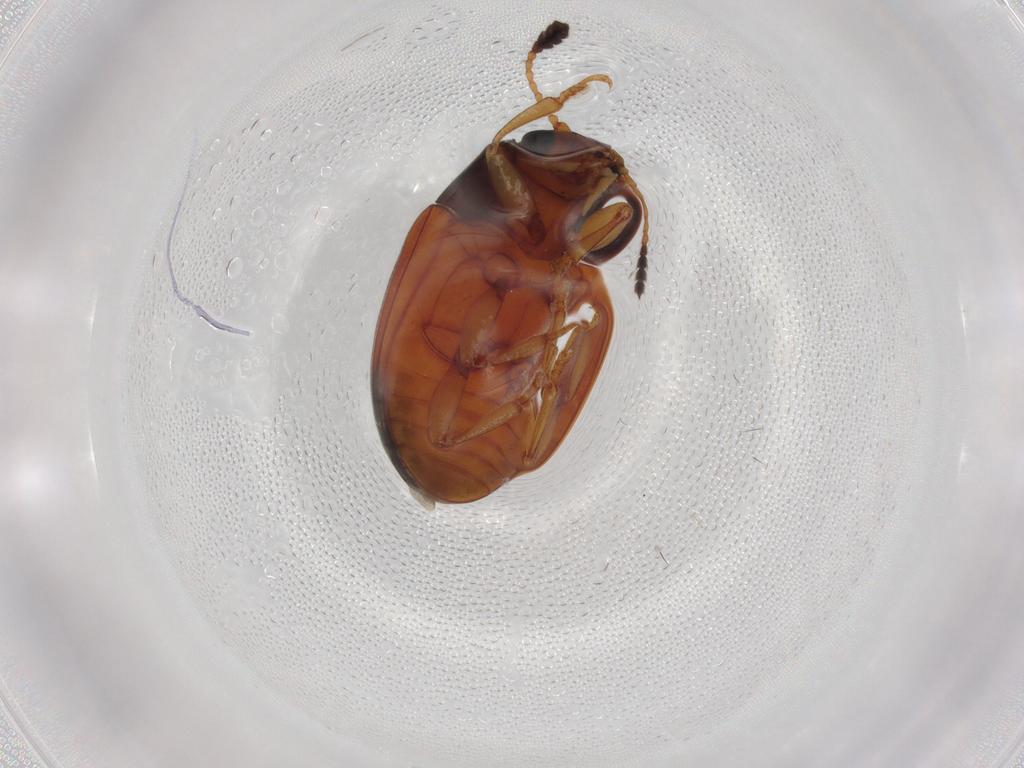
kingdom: Animalia
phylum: Arthropoda
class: Insecta
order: Coleoptera
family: Erotylidae
